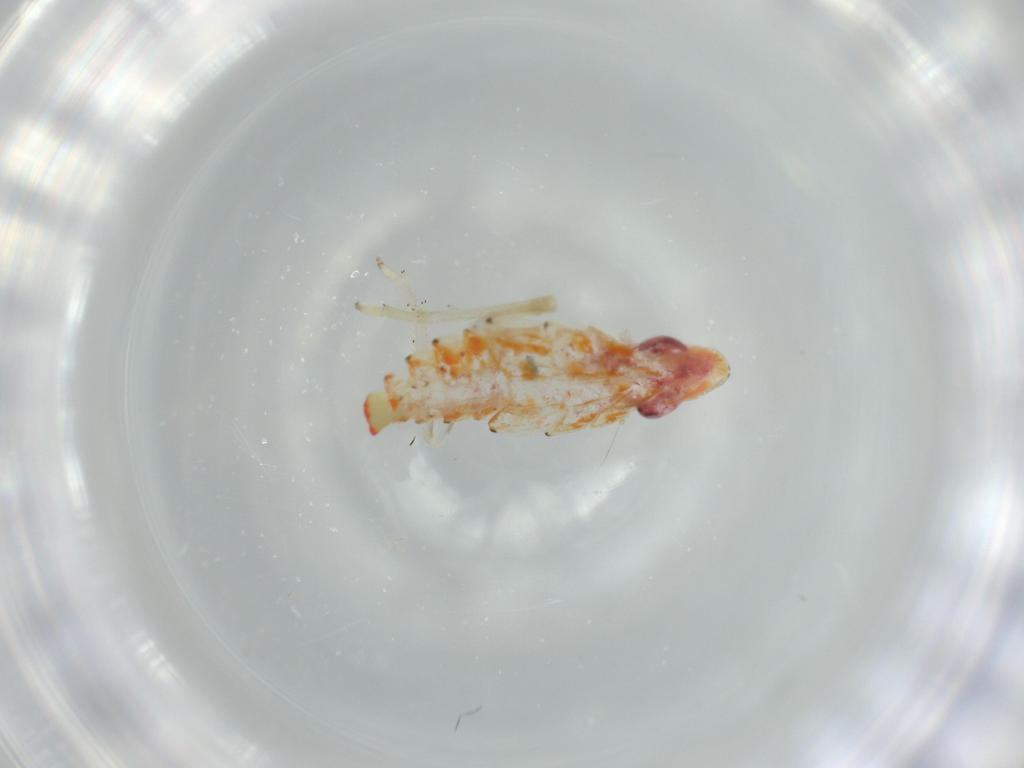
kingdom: Animalia
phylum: Arthropoda
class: Insecta
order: Hemiptera
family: Tropiduchidae
